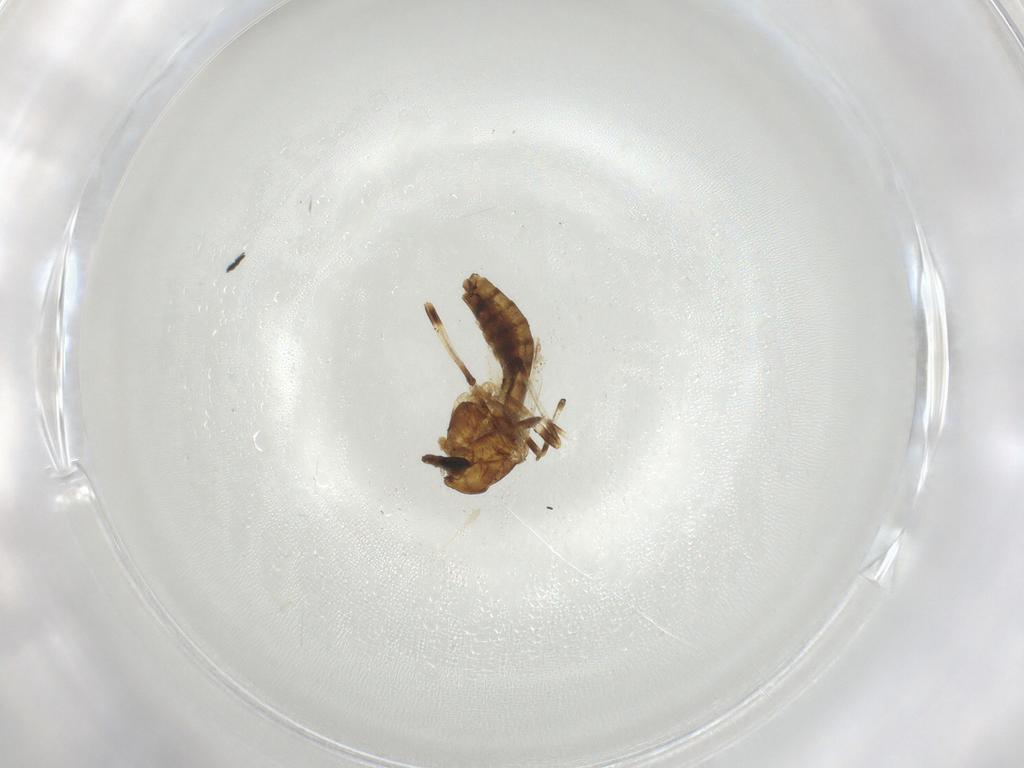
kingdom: Animalia
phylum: Arthropoda
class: Insecta
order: Diptera
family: Chironomidae
